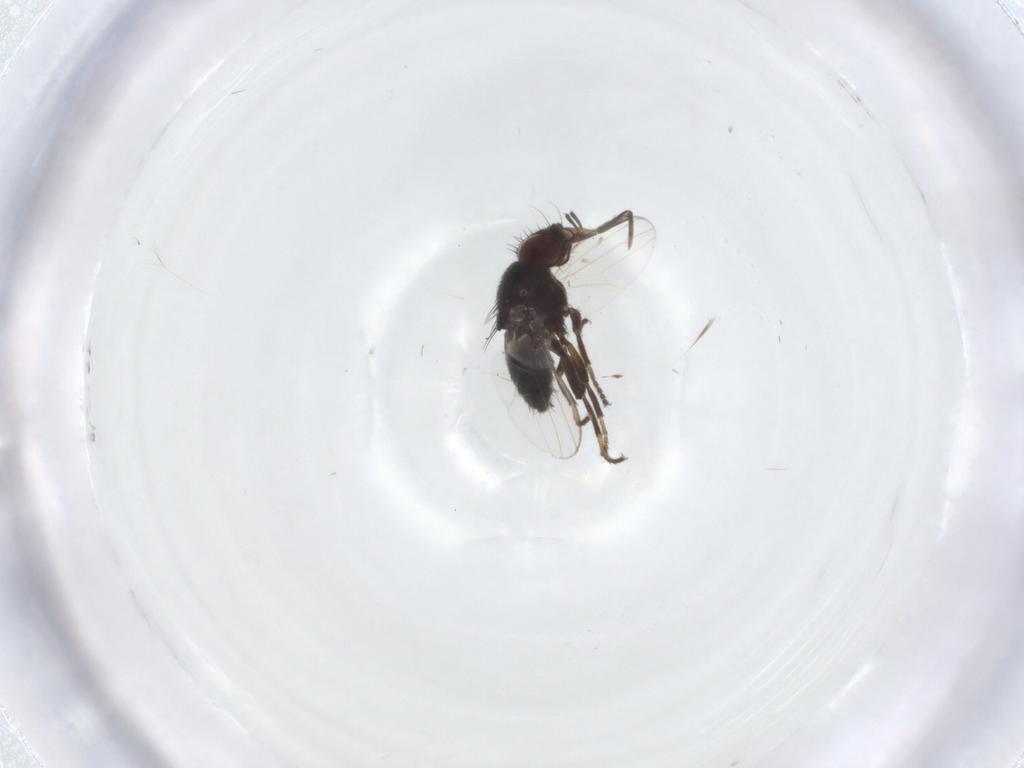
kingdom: Animalia
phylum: Arthropoda
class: Insecta
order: Diptera
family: Milichiidae
